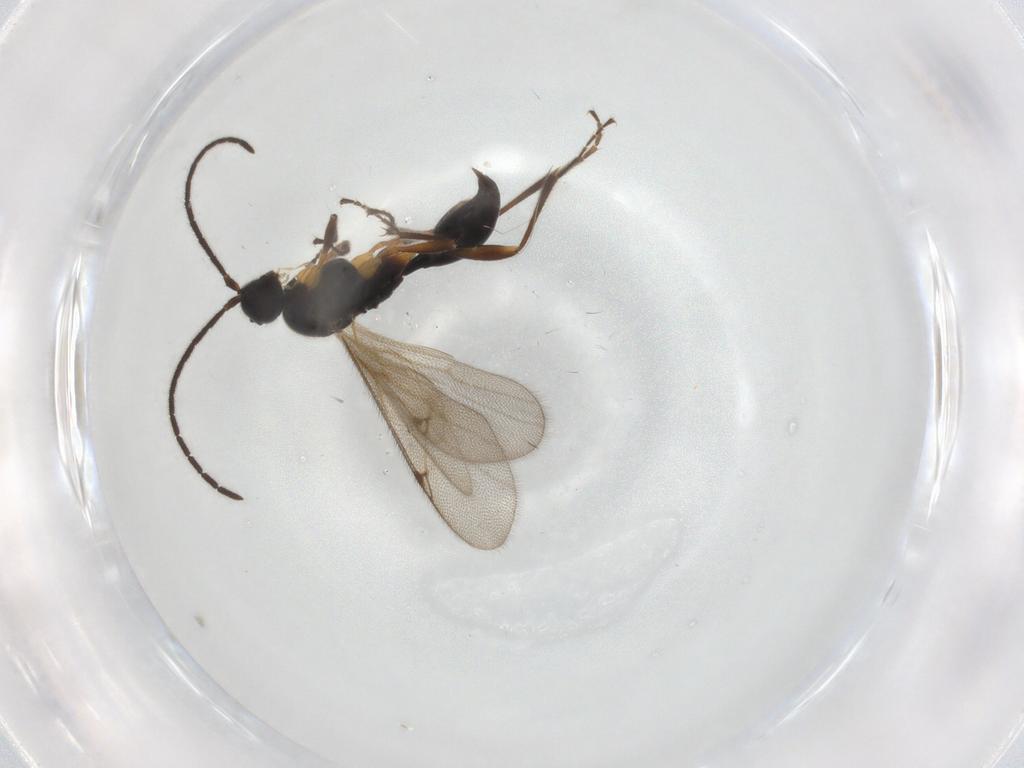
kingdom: Animalia
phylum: Arthropoda
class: Insecta
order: Hymenoptera
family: Proctotrupidae
